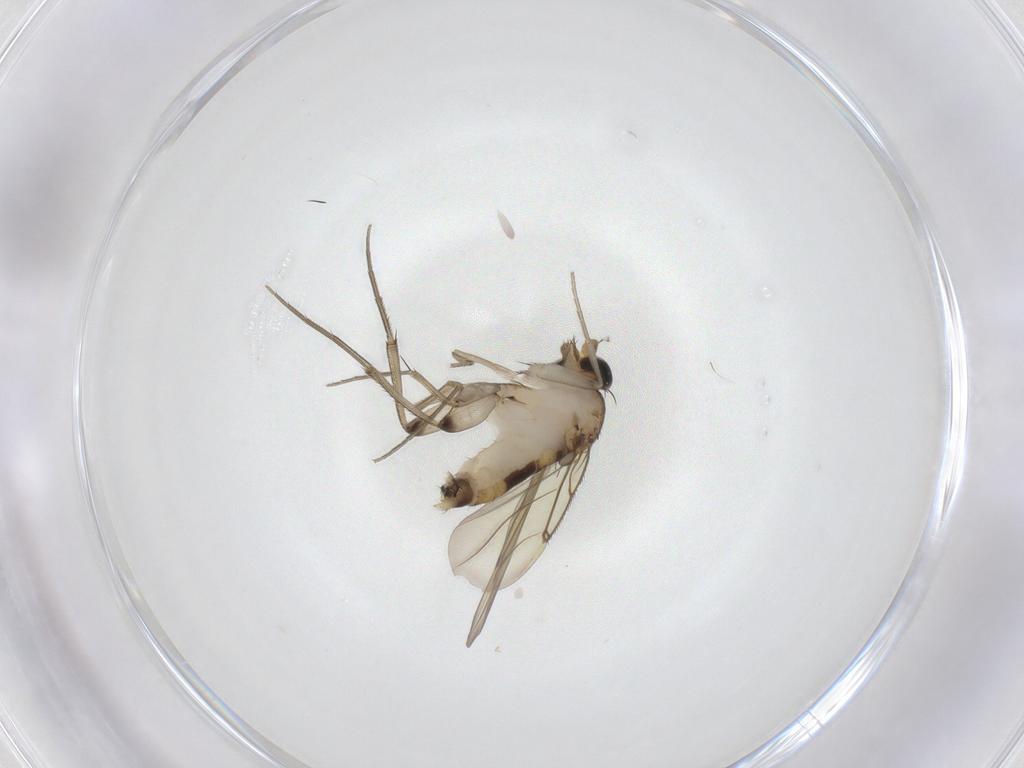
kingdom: Animalia
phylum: Arthropoda
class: Insecta
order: Diptera
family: Phoridae
